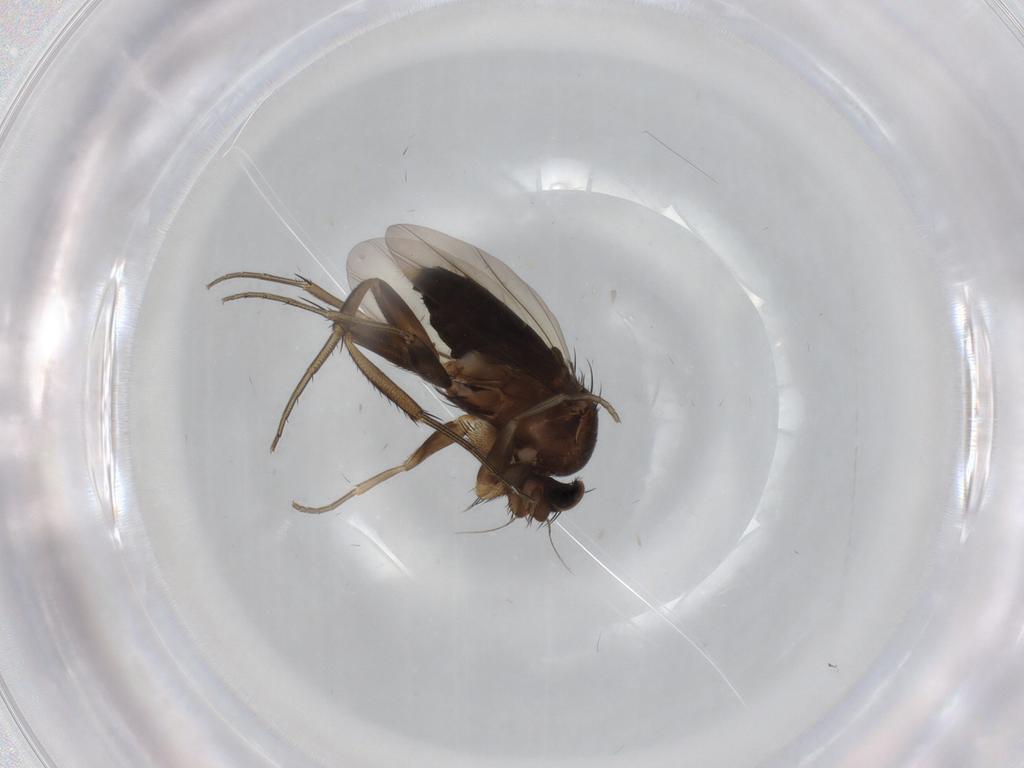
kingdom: Animalia
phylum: Arthropoda
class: Insecta
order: Diptera
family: Phoridae
